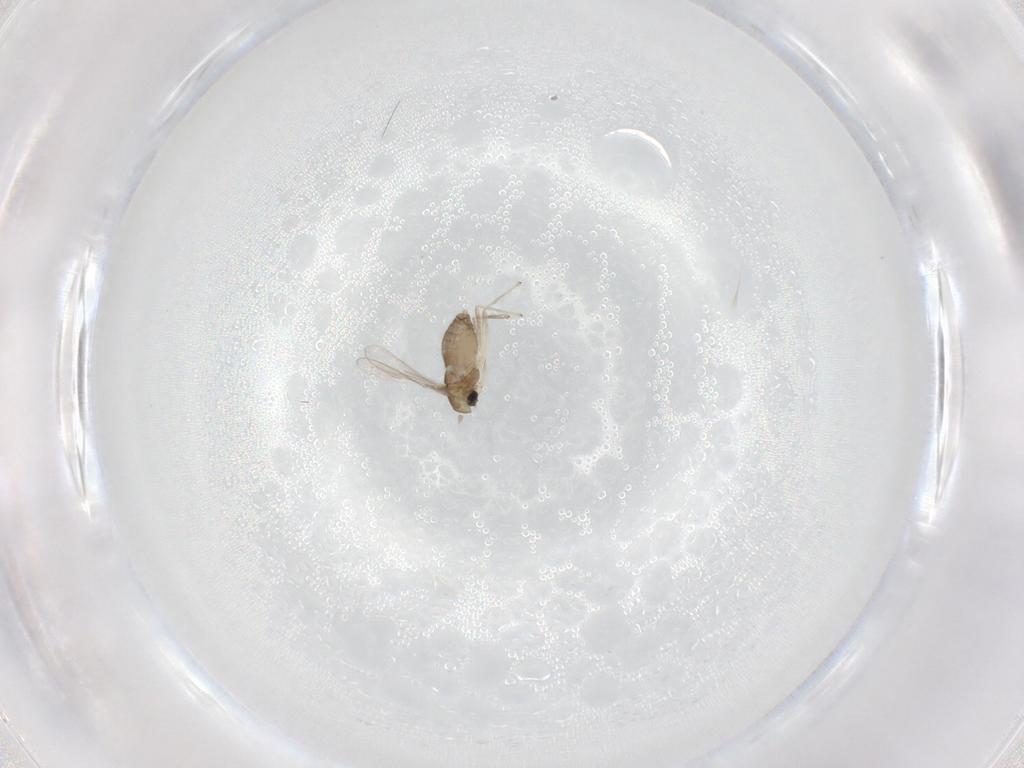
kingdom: Animalia
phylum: Arthropoda
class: Insecta
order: Diptera
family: Chironomidae
